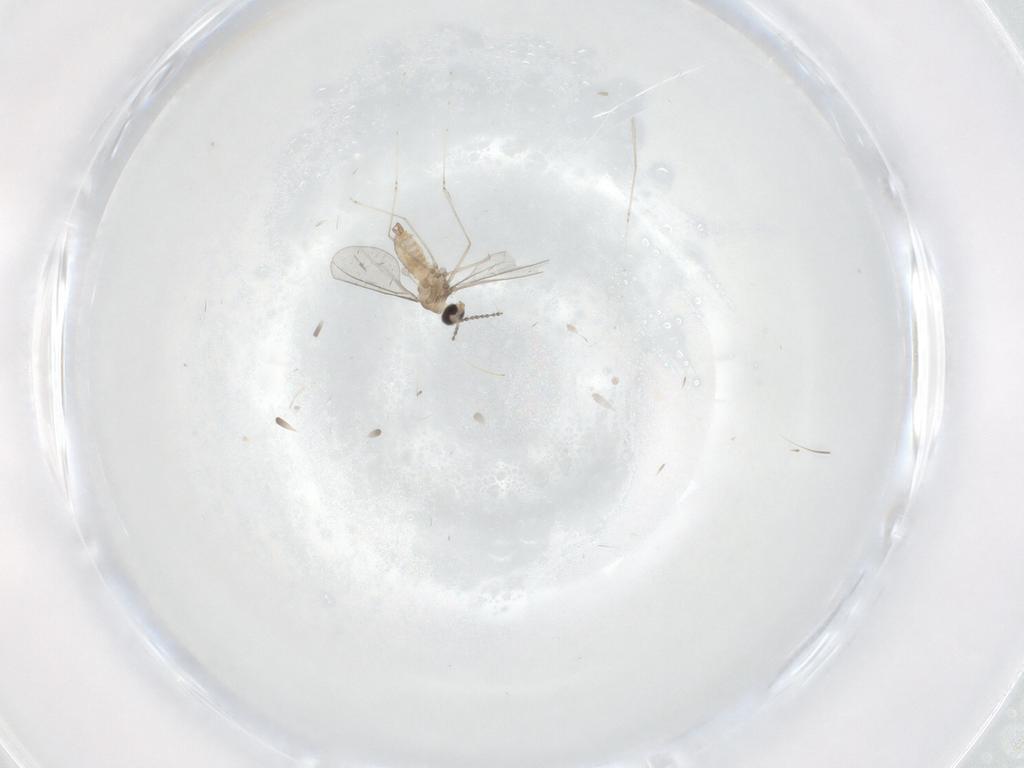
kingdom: Animalia
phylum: Arthropoda
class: Insecta
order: Diptera
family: Cecidomyiidae
